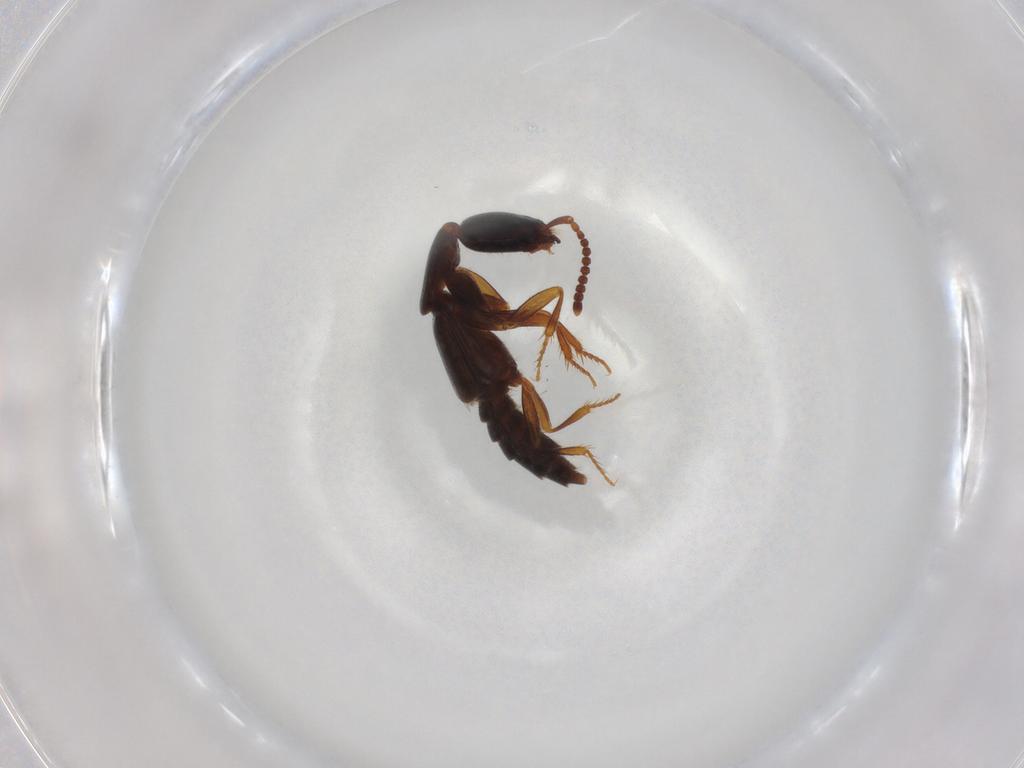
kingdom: Animalia
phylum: Arthropoda
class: Insecta
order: Coleoptera
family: Staphylinidae
